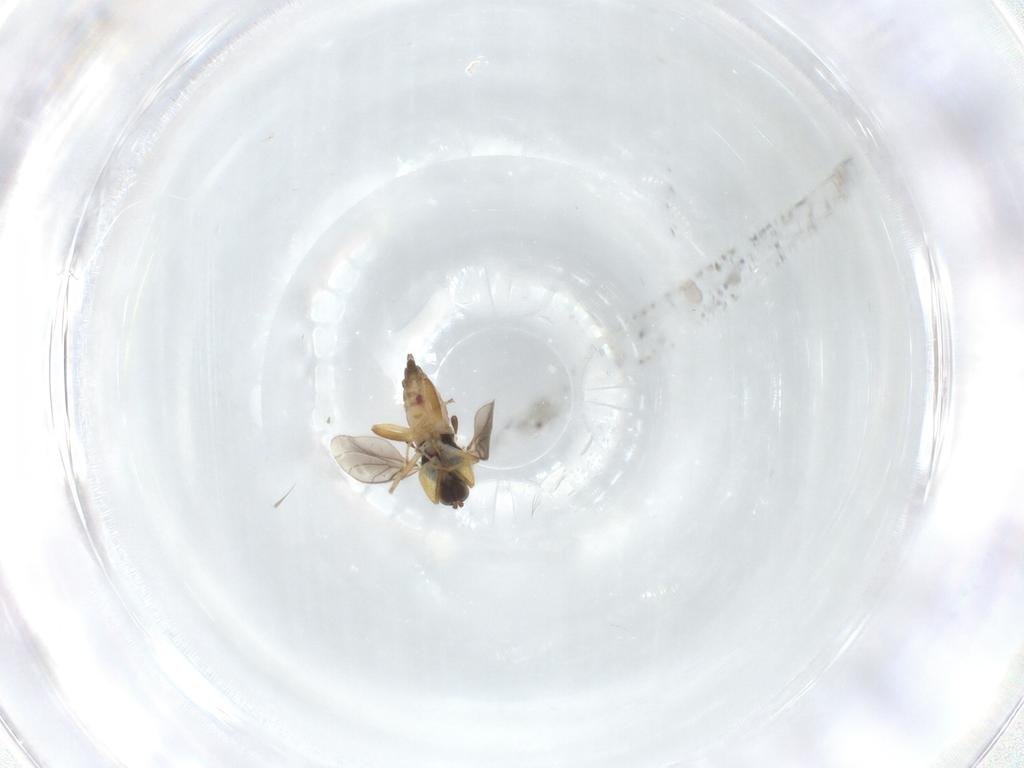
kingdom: Animalia
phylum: Arthropoda
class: Insecta
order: Diptera
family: Hybotidae
